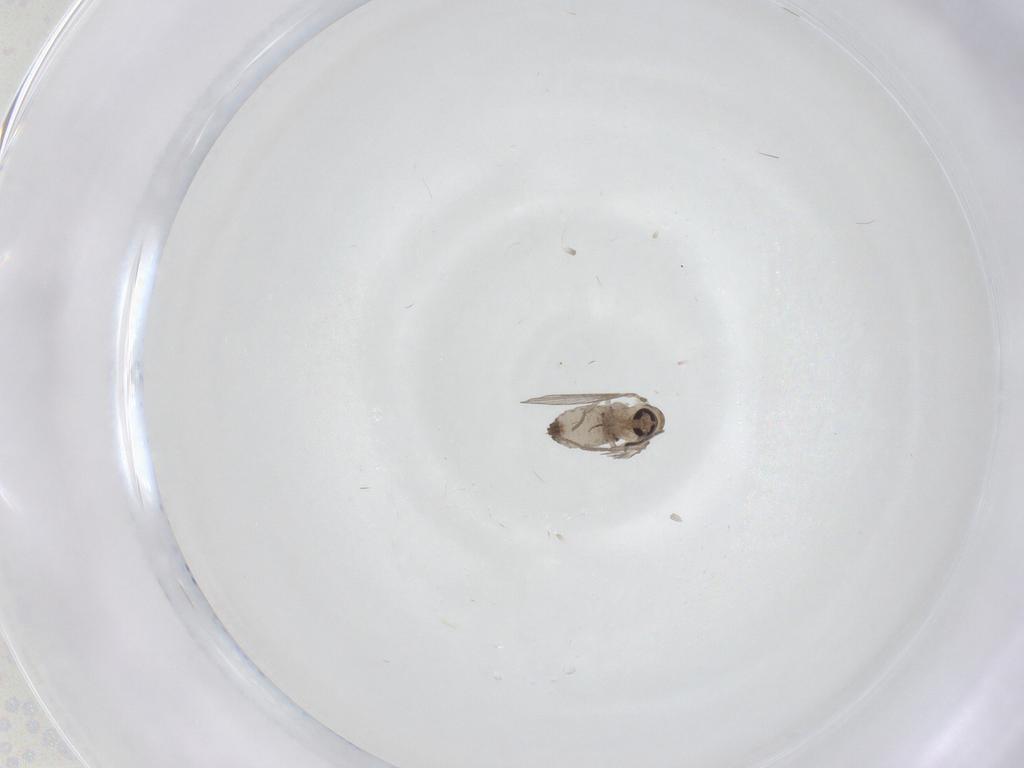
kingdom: Animalia
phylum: Arthropoda
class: Insecta
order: Diptera
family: Psychodidae
